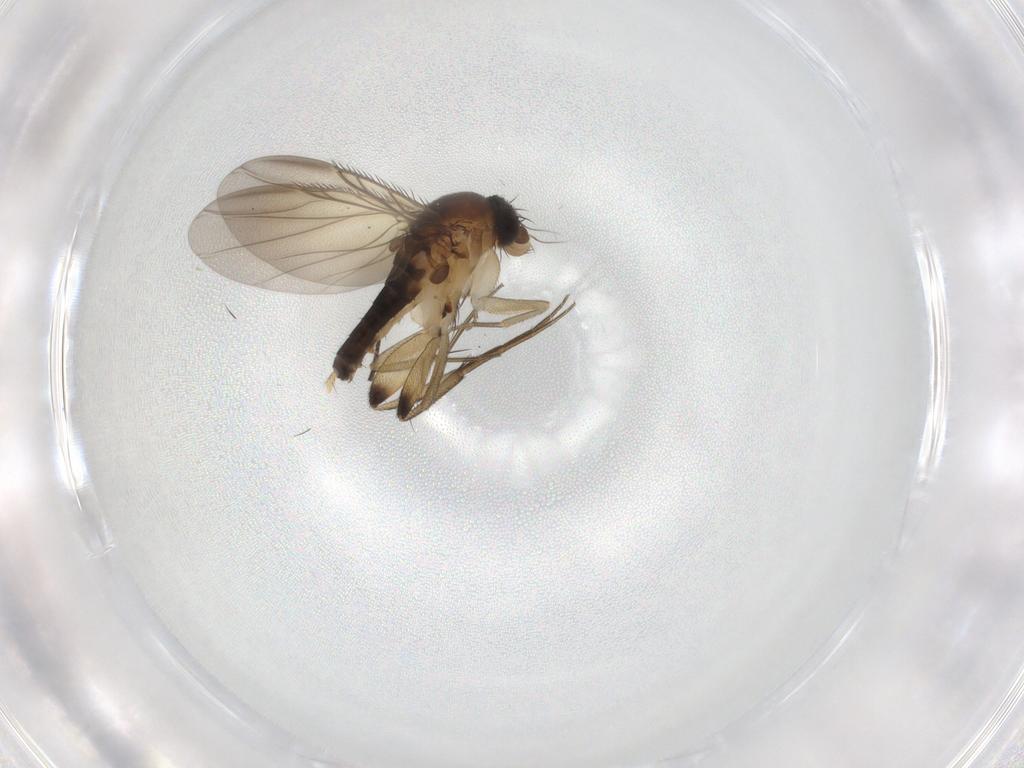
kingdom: Animalia
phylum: Arthropoda
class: Insecta
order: Diptera
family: Phoridae
